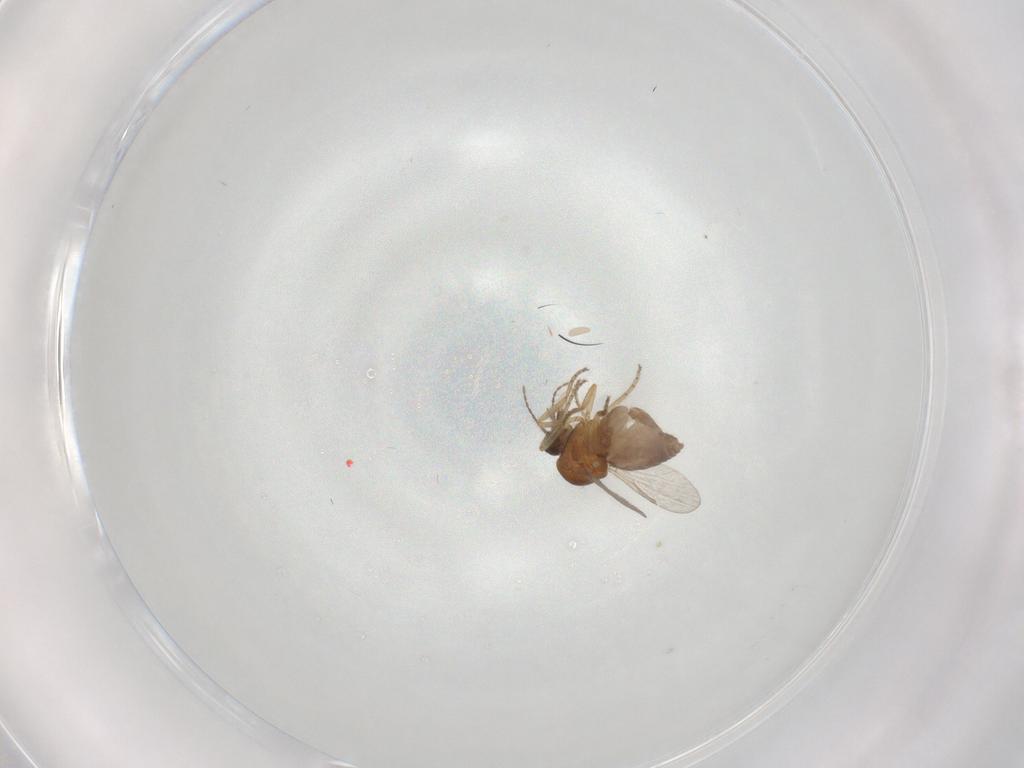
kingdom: Animalia
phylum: Arthropoda
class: Insecta
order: Diptera
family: Ceratopogonidae
